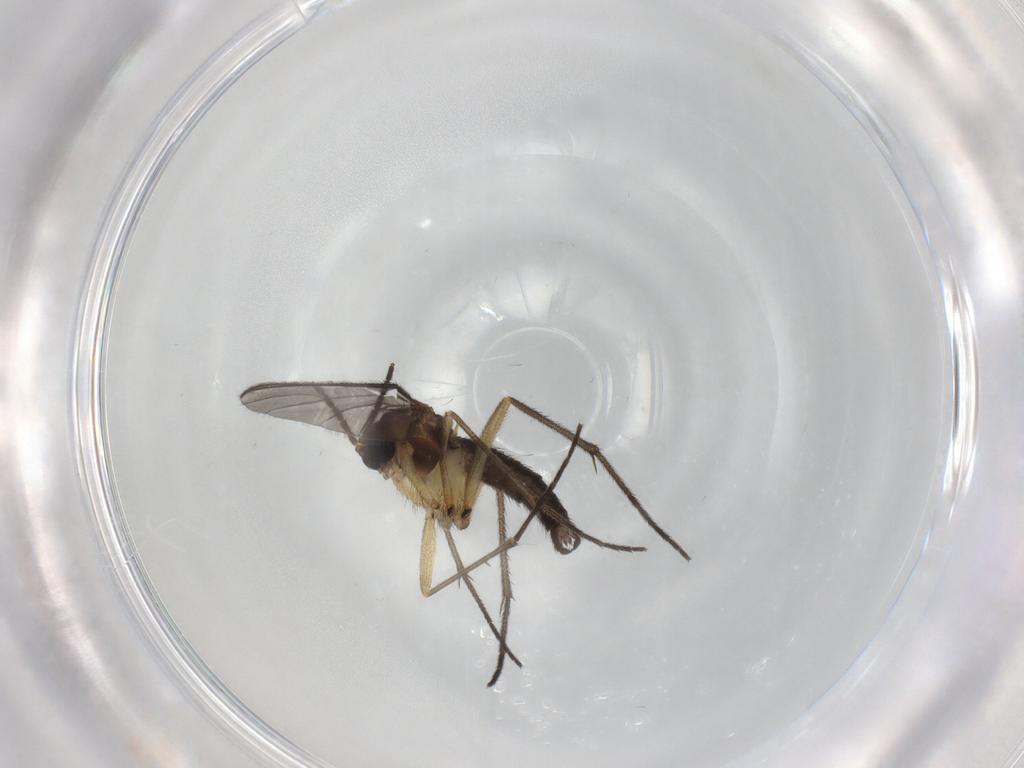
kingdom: Animalia
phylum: Arthropoda
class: Insecta
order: Diptera
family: Sciaridae
